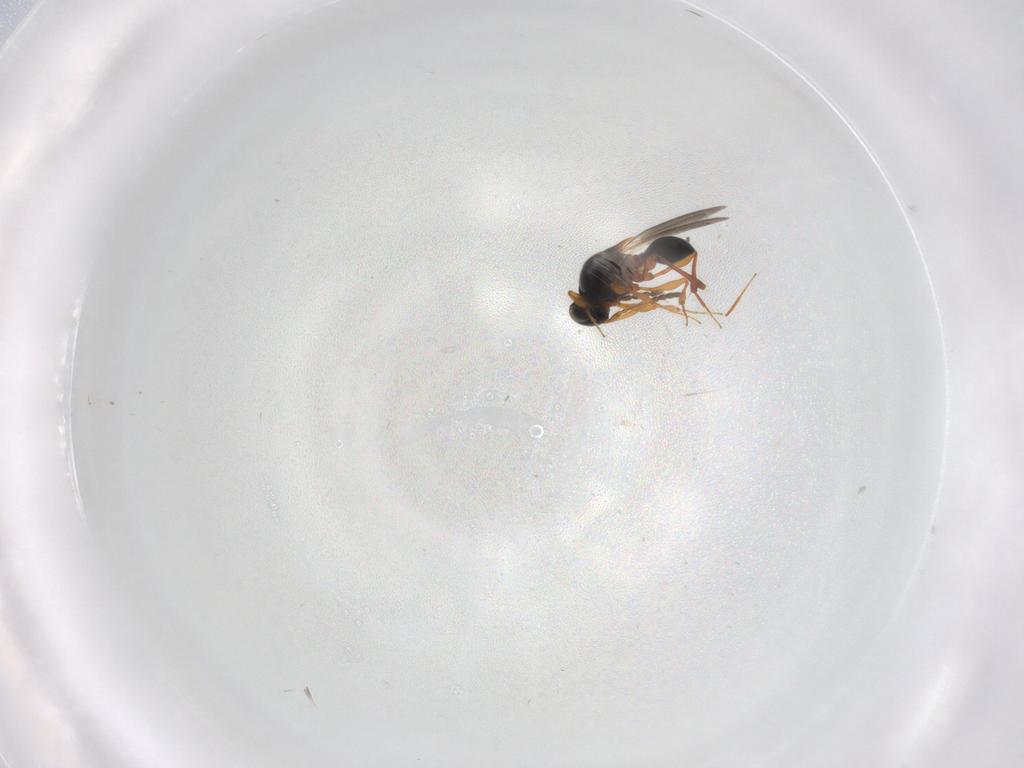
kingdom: Animalia
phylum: Arthropoda
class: Insecta
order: Hymenoptera
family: Platygastridae
